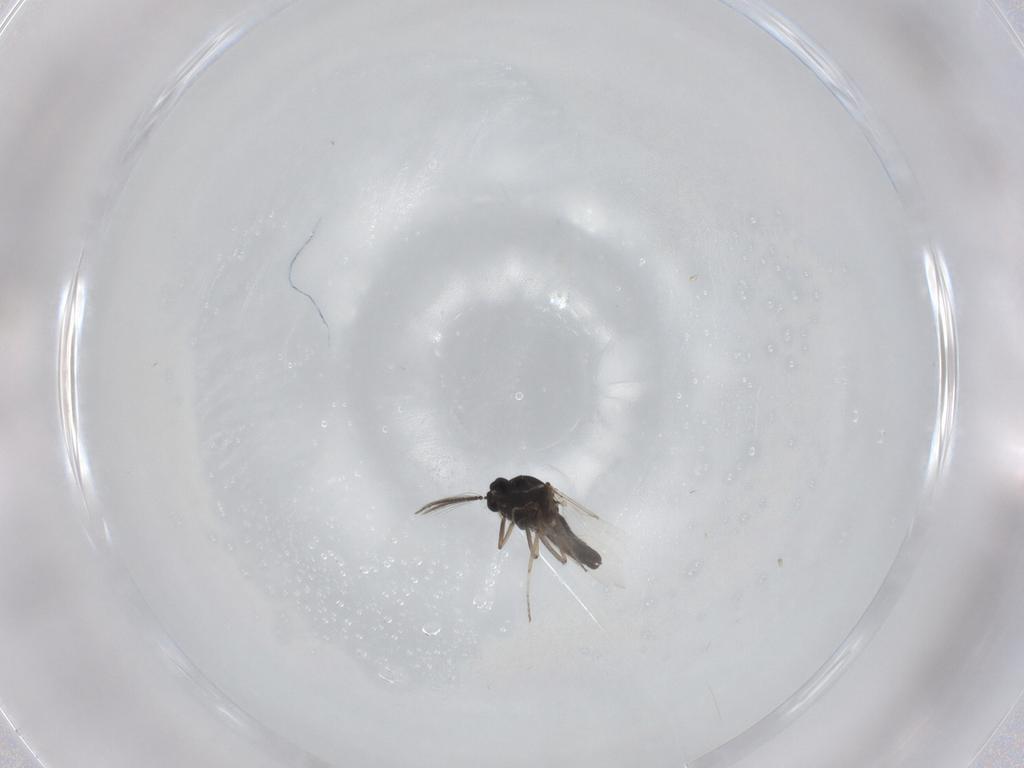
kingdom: Animalia
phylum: Arthropoda
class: Insecta
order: Diptera
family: Ceratopogonidae
